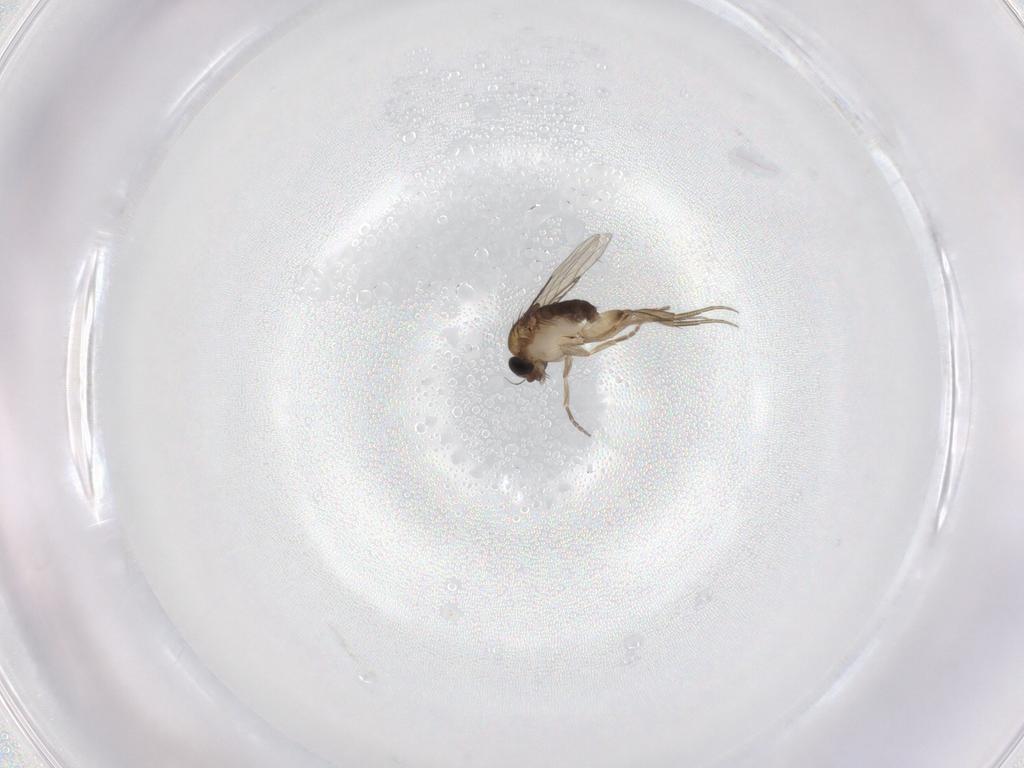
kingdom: Animalia
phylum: Arthropoda
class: Insecta
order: Diptera
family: Phoridae
